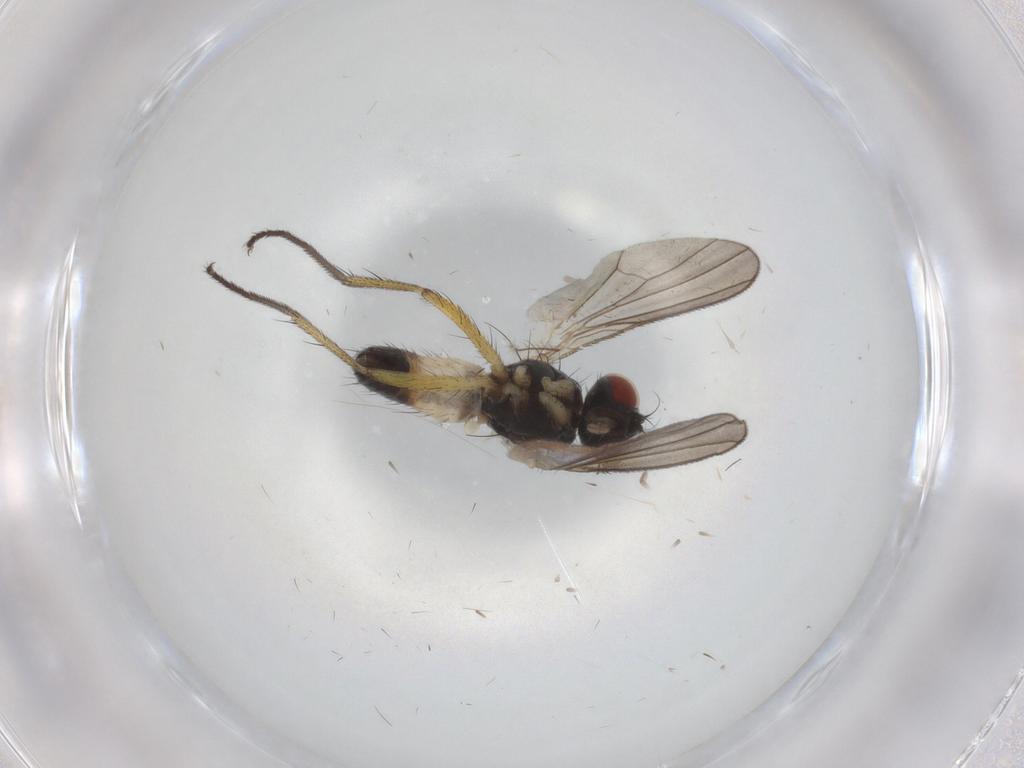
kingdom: Animalia
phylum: Arthropoda
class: Insecta
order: Diptera
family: Muscidae
